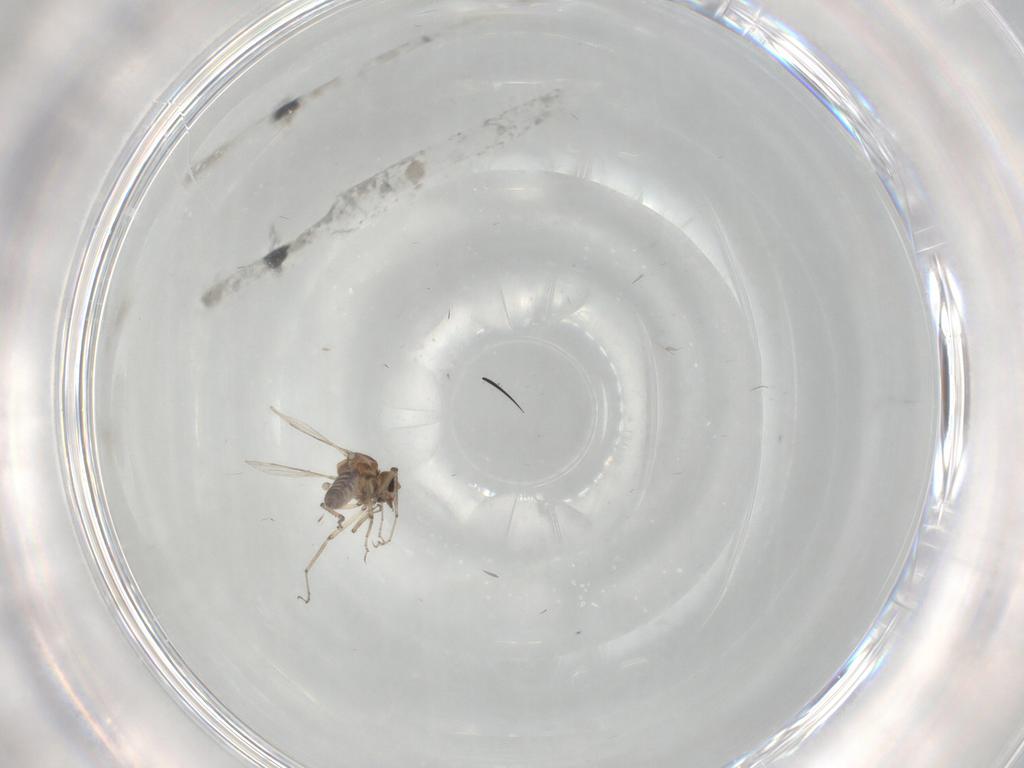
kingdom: Animalia
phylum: Arthropoda
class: Insecta
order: Diptera
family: Ceratopogonidae
